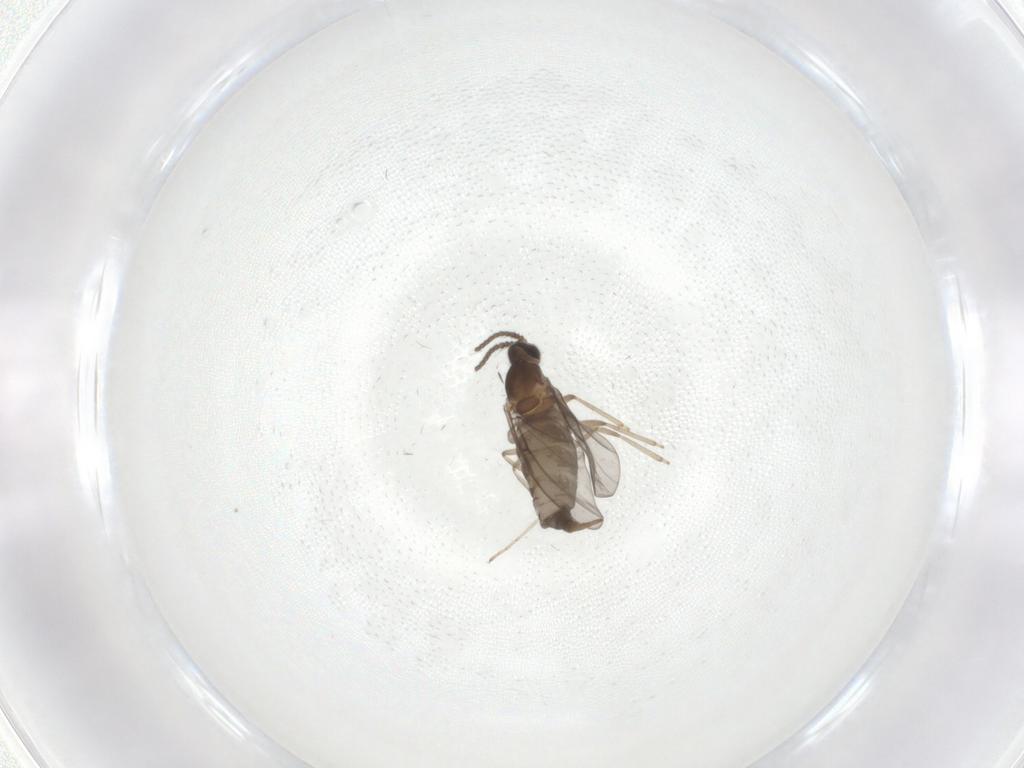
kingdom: Animalia
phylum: Arthropoda
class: Insecta
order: Diptera
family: Cecidomyiidae
